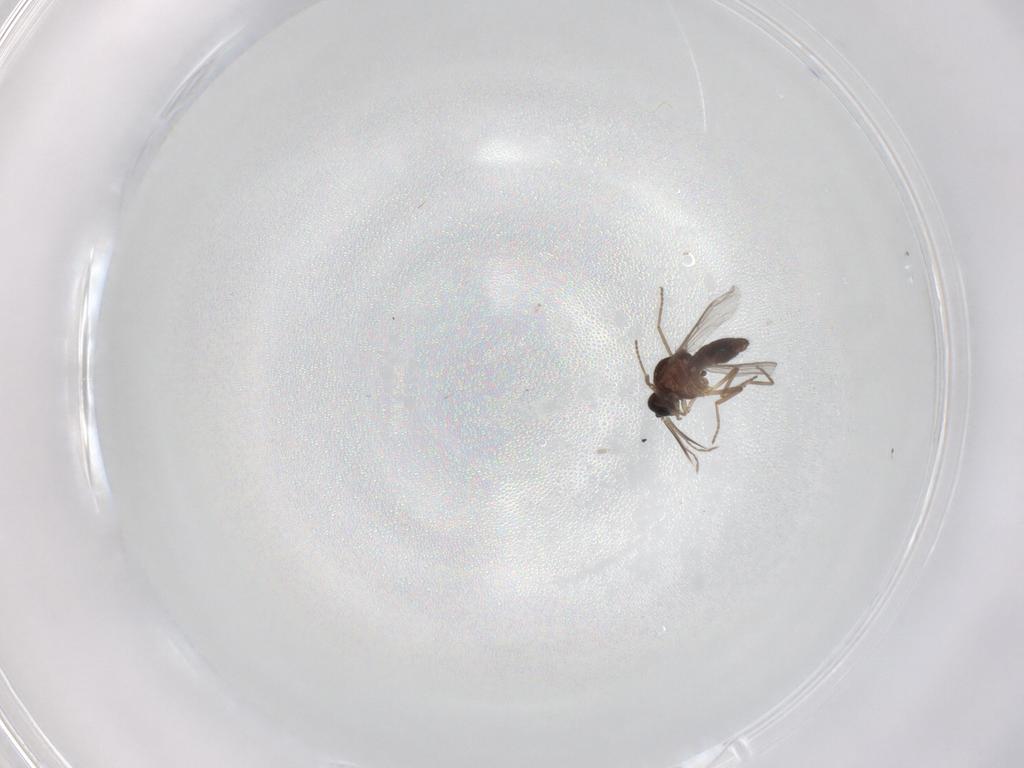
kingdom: Animalia
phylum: Arthropoda
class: Insecta
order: Diptera
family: Ceratopogonidae
